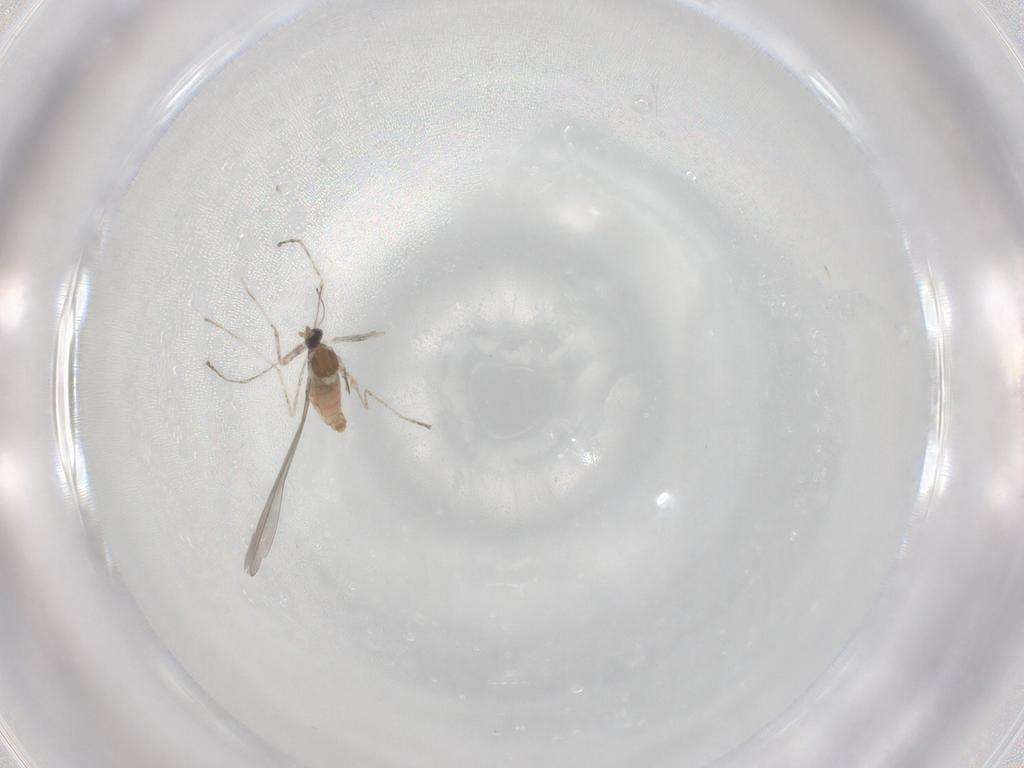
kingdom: Animalia
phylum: Arthropoda
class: Insecta
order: Diptera
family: Cecidomyiidae
